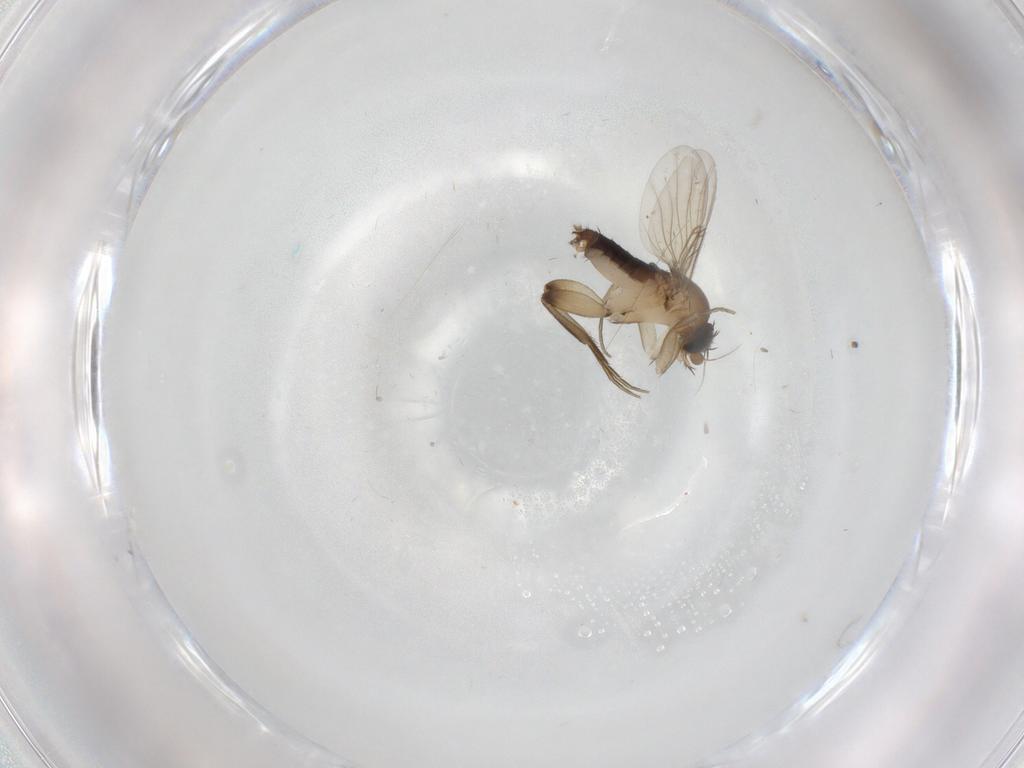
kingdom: Animalia
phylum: Arthropoda
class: Insecta
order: Diptera
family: Phoridae
